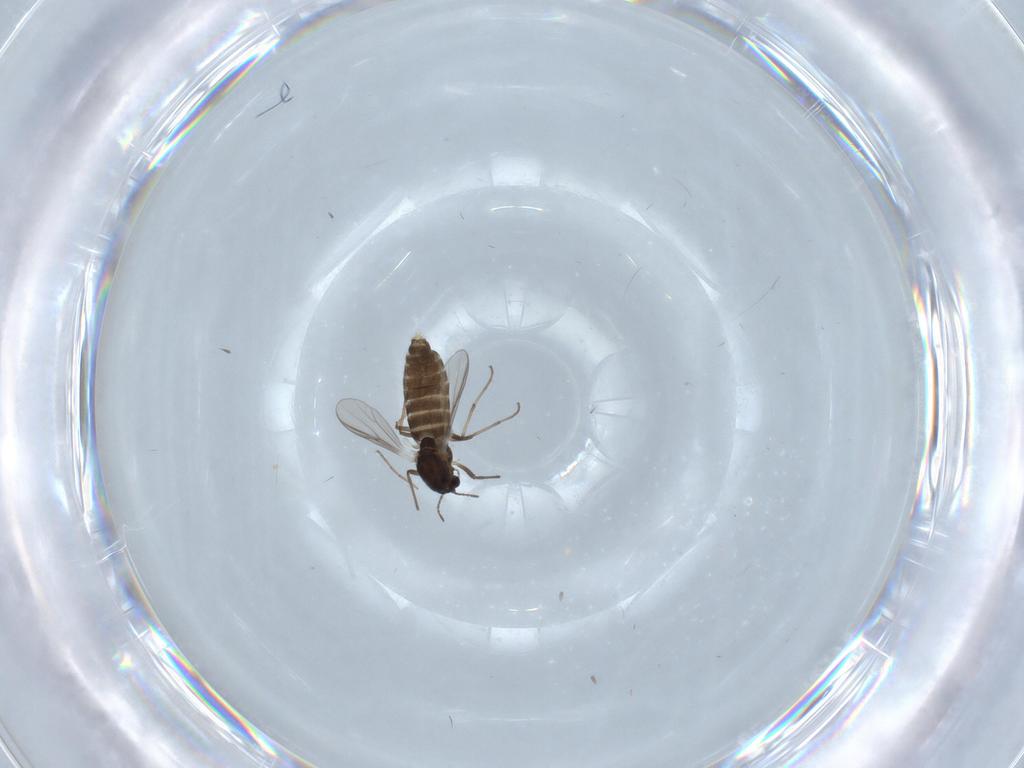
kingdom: Animalia
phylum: Arthropoda
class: Insecta
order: Diptera
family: Chironomidae
